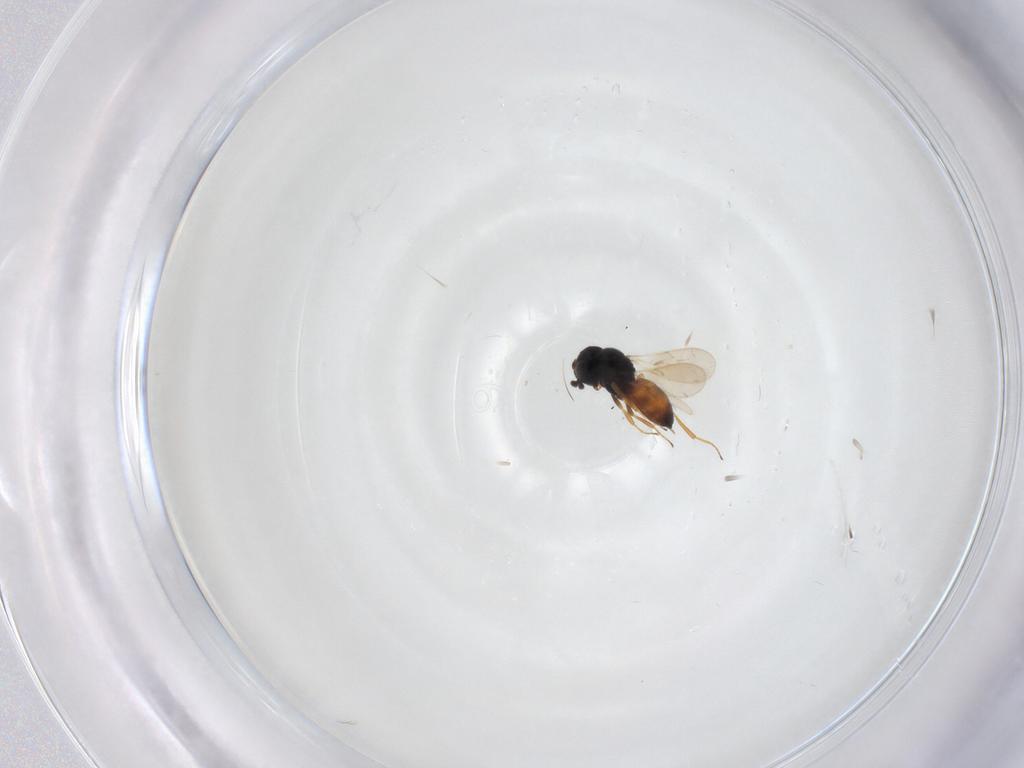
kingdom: Animalia
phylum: Arthropoda
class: Insecta
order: Hymenoptera
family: Scelionidae
